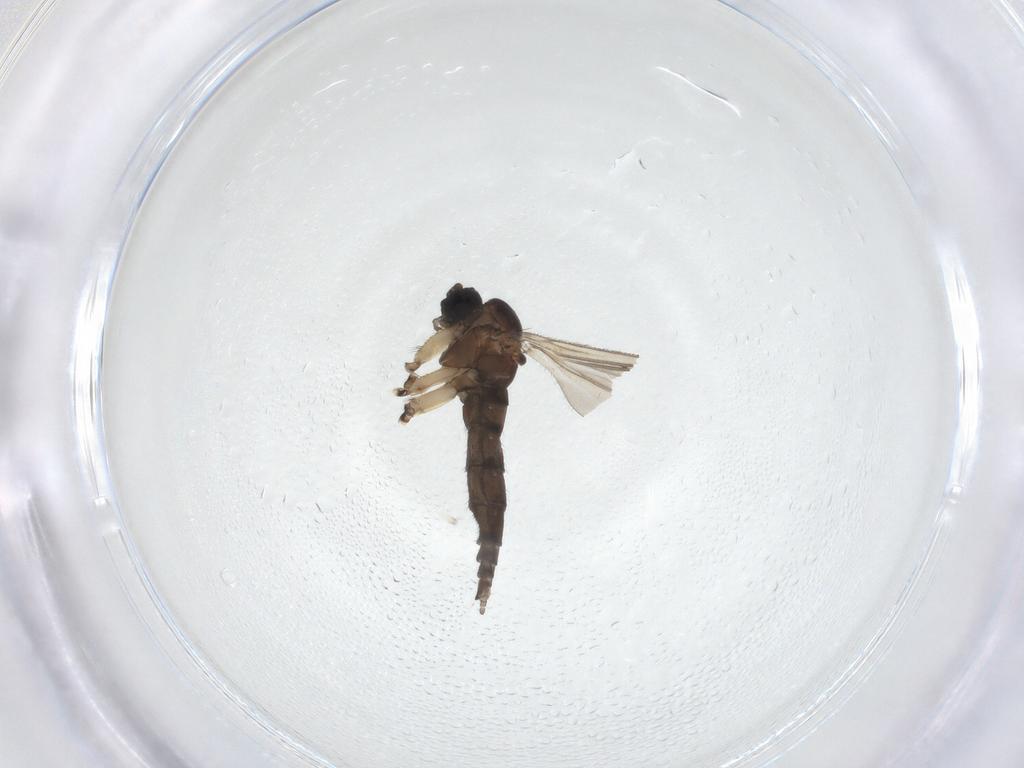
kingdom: Animalia
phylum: Arthropoda
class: Insecta
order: Diptera
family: Sciaridae
